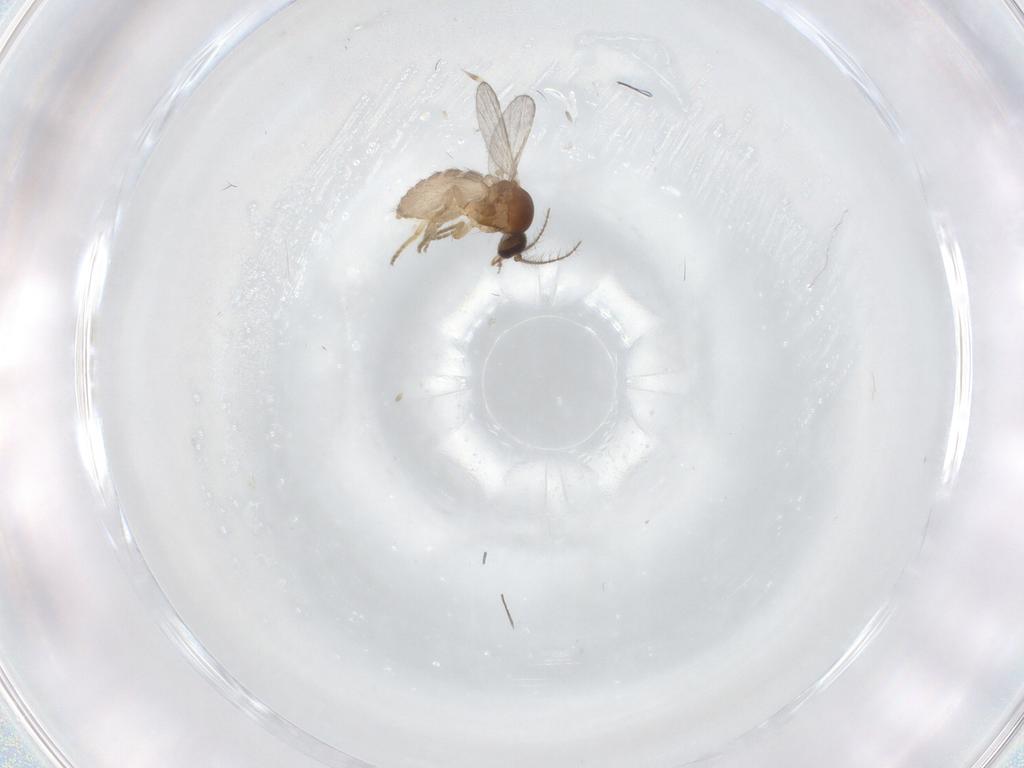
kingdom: Animalia
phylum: Arthropoda
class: Insecta
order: Diptera
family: Ceratopogonidae
